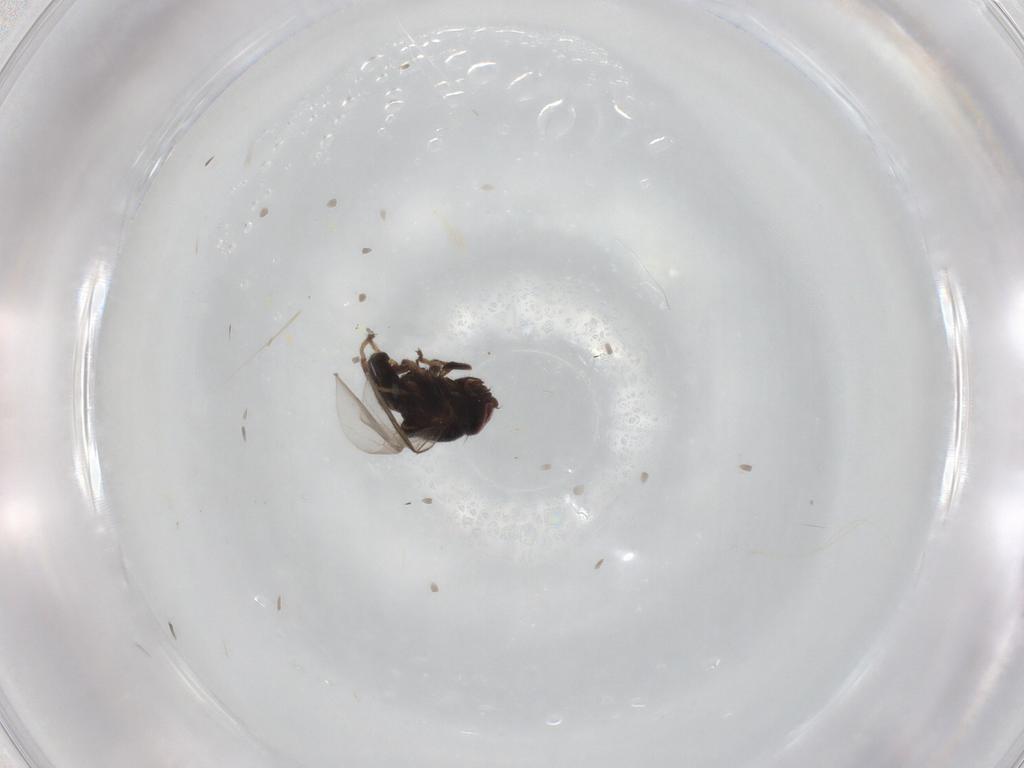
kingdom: Animalia
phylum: Arthropoda
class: Insecta
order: Diptera
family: Chloropidae
